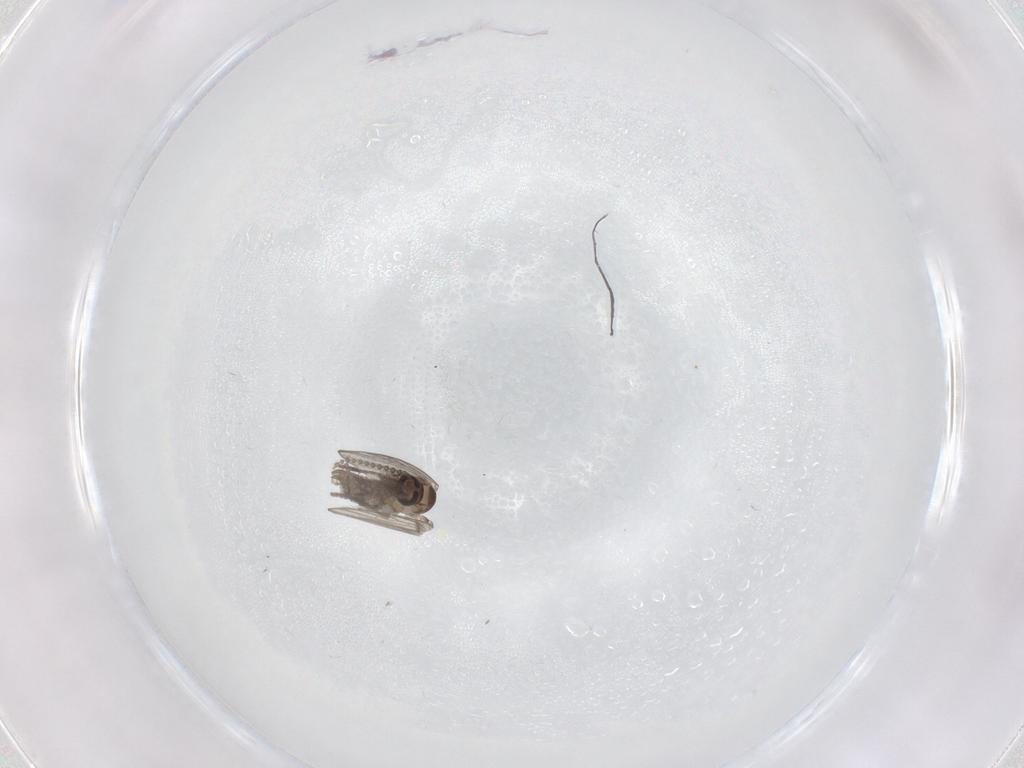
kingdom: Animalia
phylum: Arthropoda
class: Insecta
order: Diptera
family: Psychodidae
